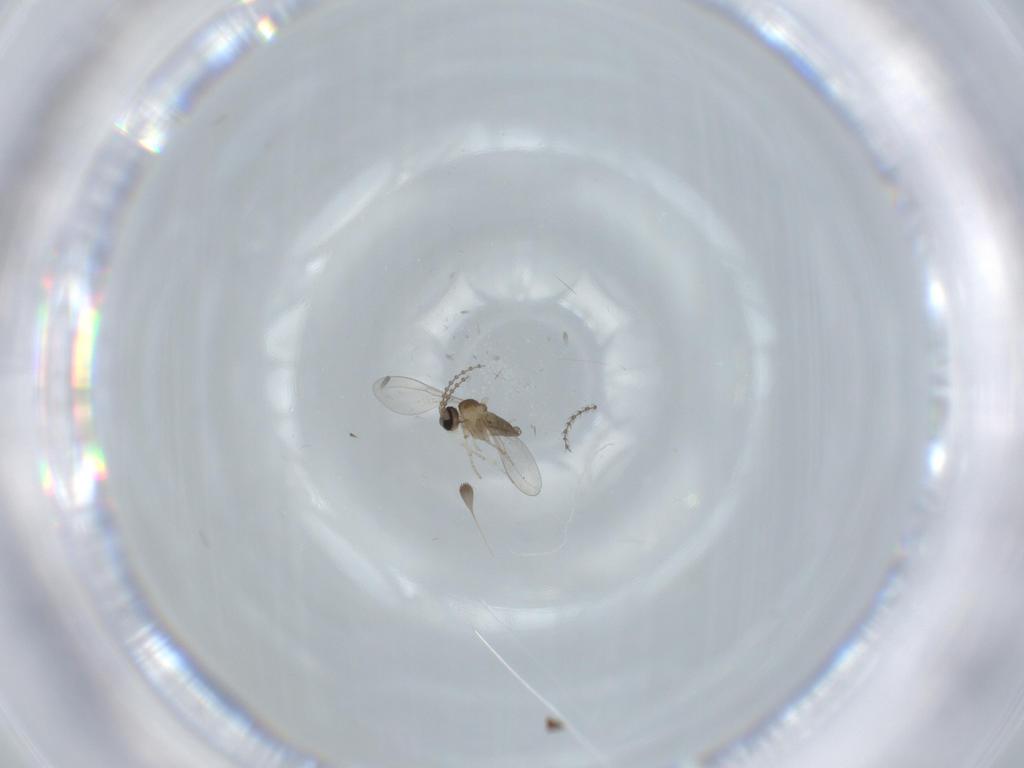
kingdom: Animalia
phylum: Arthropoda
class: Insecta
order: Diptera
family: Cecidomyiidae
